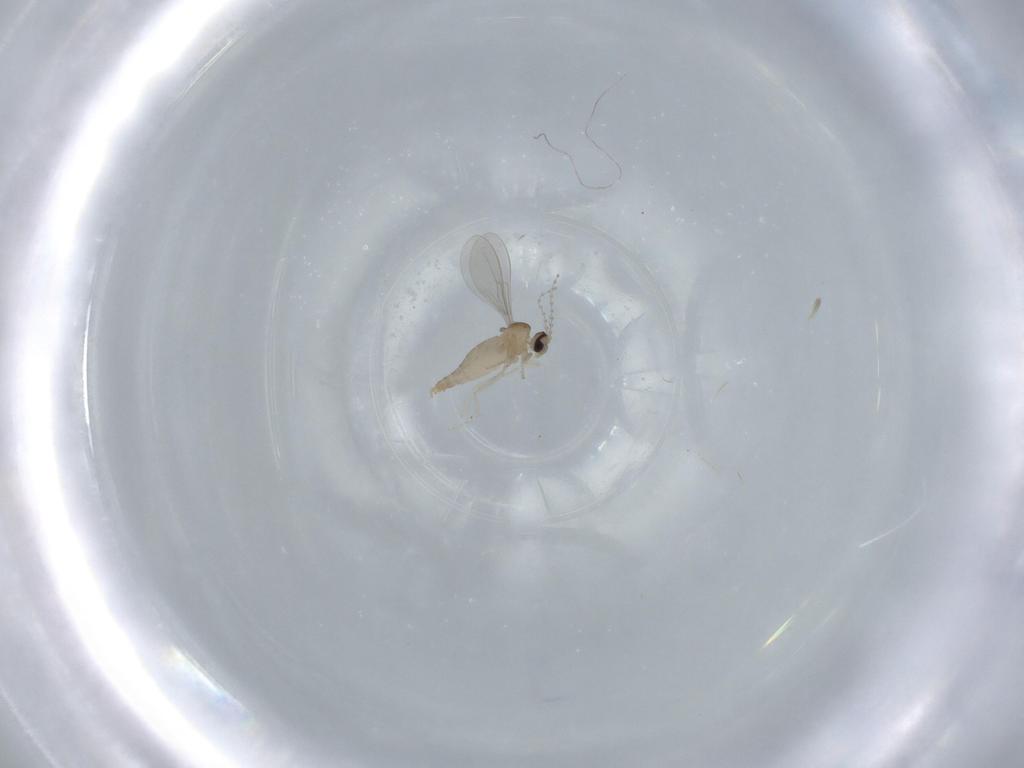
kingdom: Animalia
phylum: Arthropoda
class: Insecta
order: Diptera
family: Cecidomyiidae
